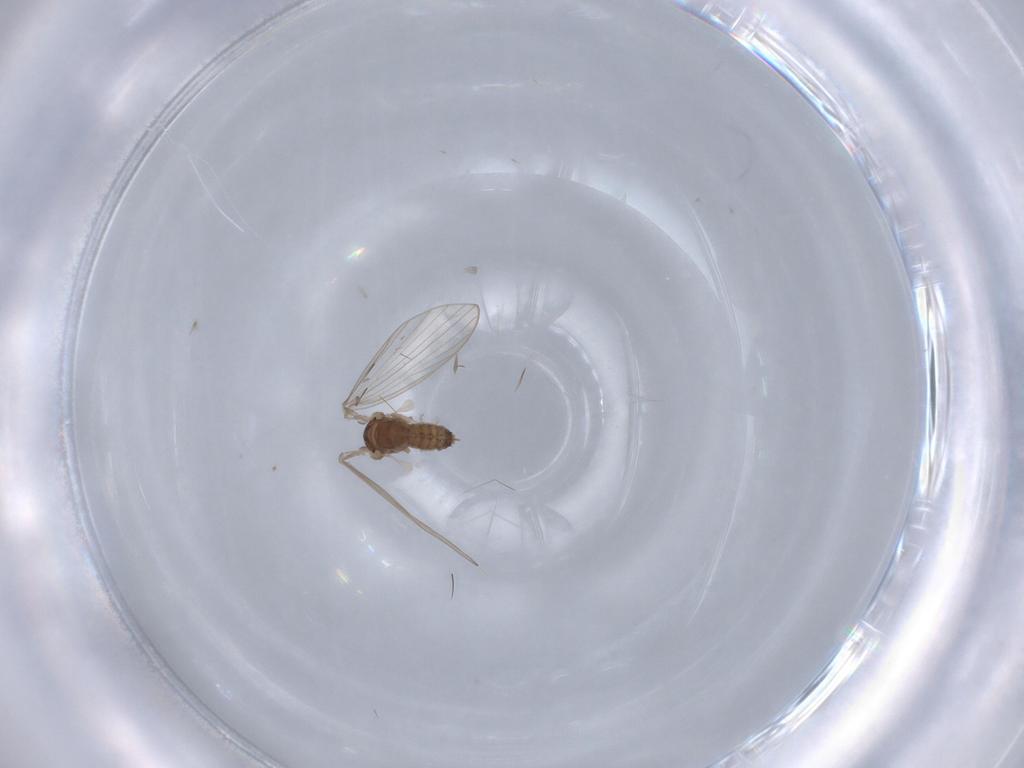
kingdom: Animalia
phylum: Arthropoda
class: Insecta
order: Diptera
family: Psychodidae
